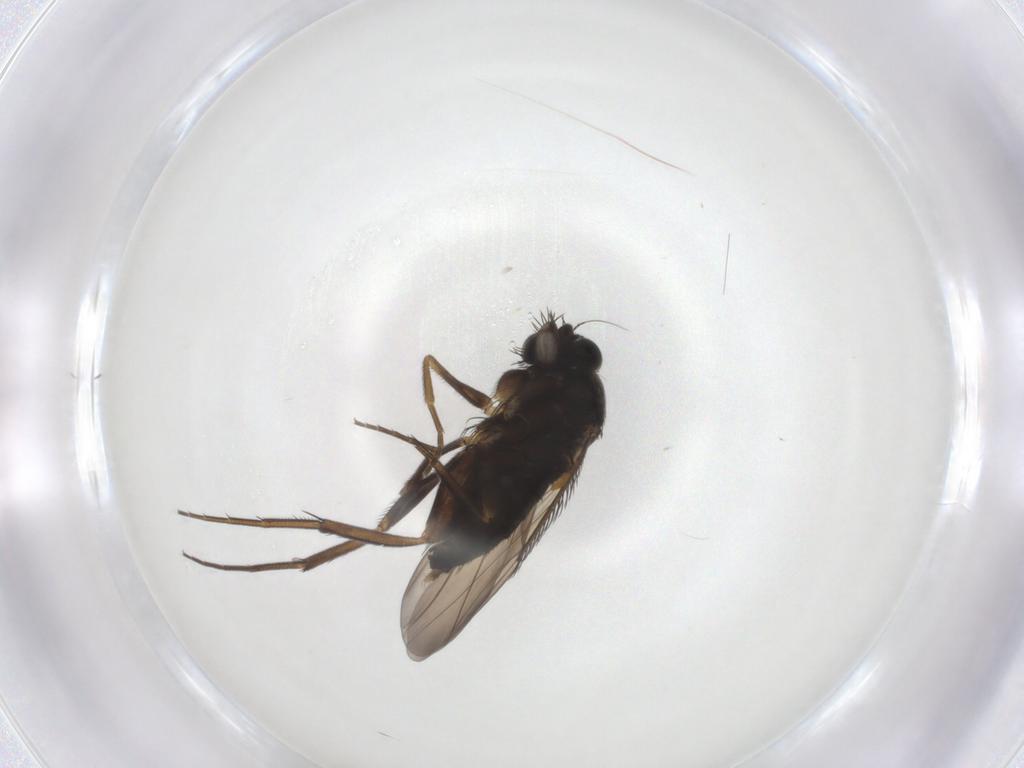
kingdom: Animalia
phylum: Arthropoda
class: Insecta
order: Diptera
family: Phoridae
